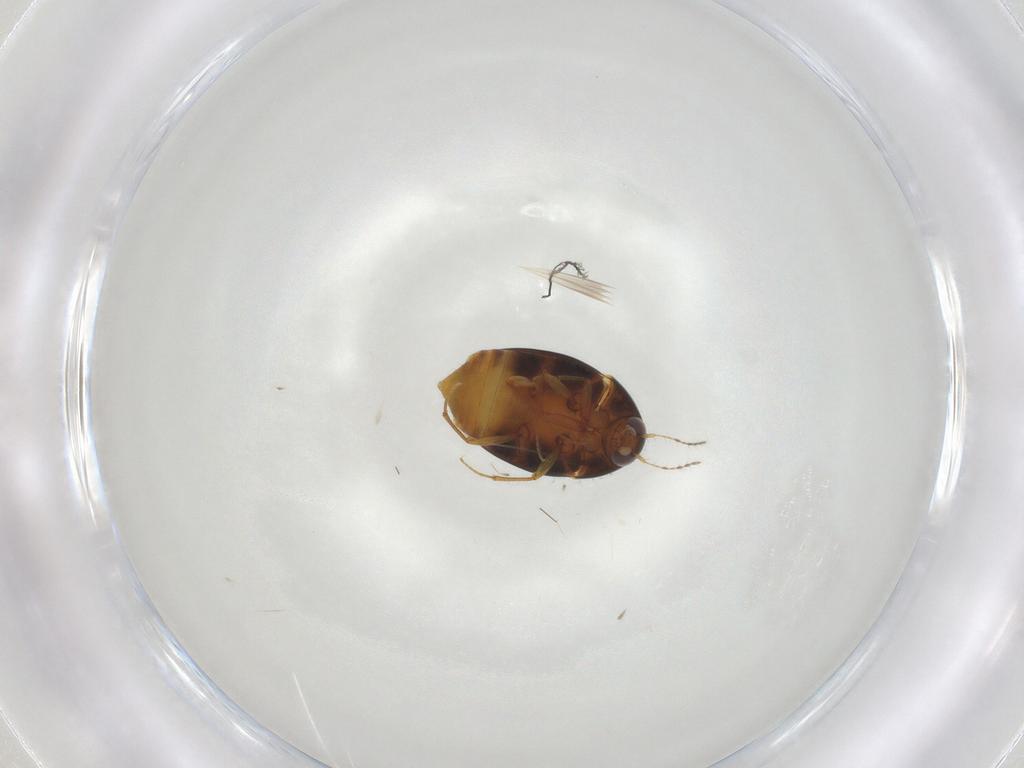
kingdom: Animalia
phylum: Arthropoda
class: Insecta
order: Coleoptera
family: Staphylinidae
